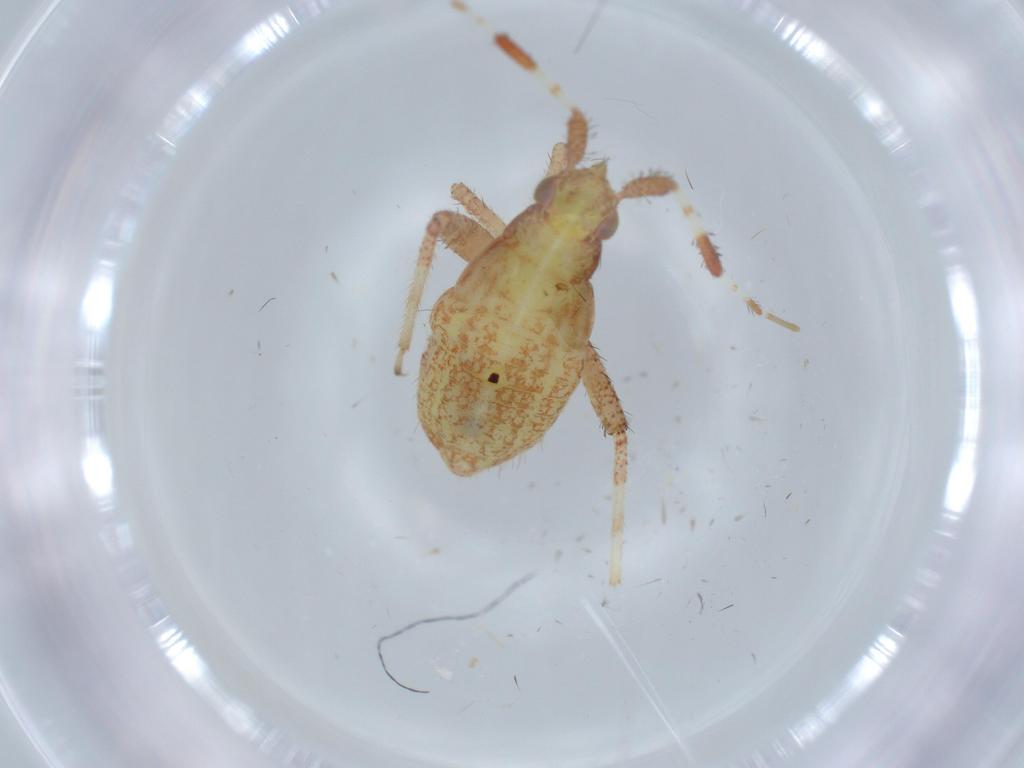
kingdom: Animalia
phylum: Arthropoda
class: Insecta
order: Hemiptera
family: Miridae
